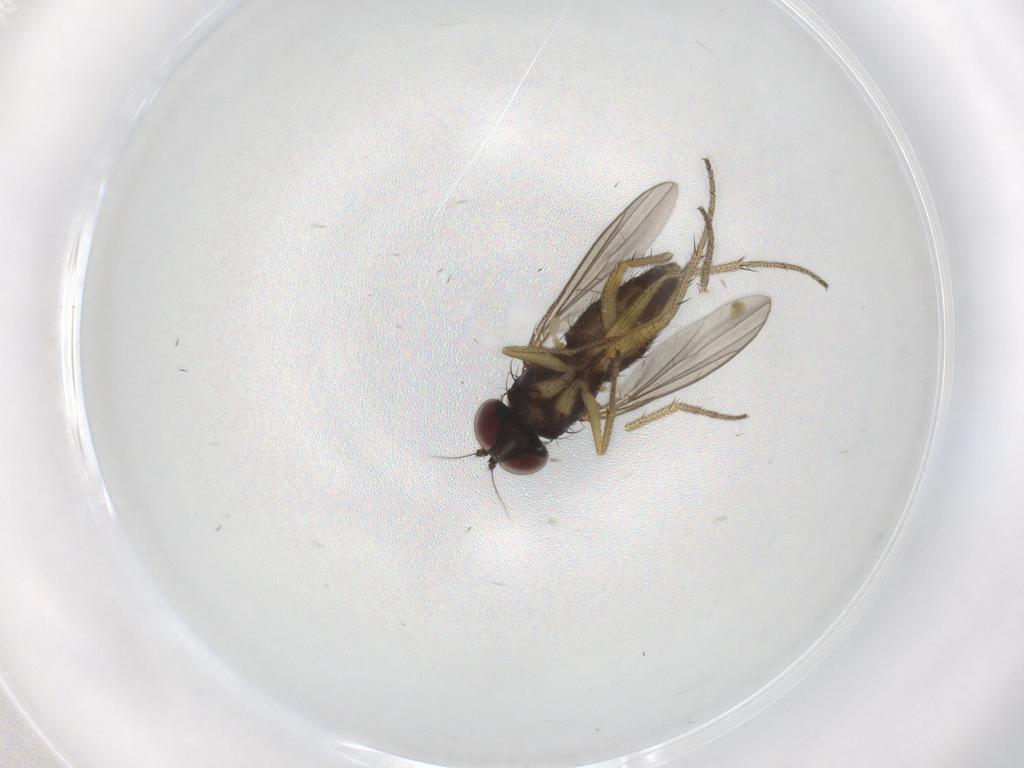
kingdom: Animalia
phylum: Arthropoda
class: Insecta
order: Diptera
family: Dolichopodidae
